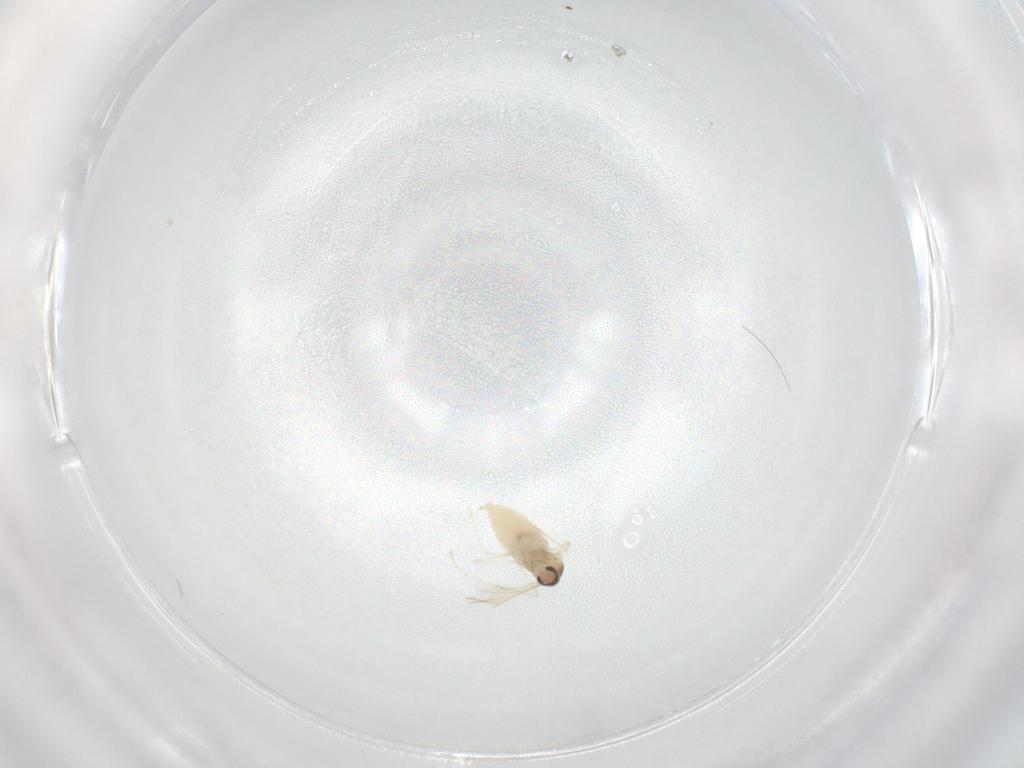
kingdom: Animalia
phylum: Arthropoda
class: Insecta
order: Diptera
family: Cecidomyiidae
